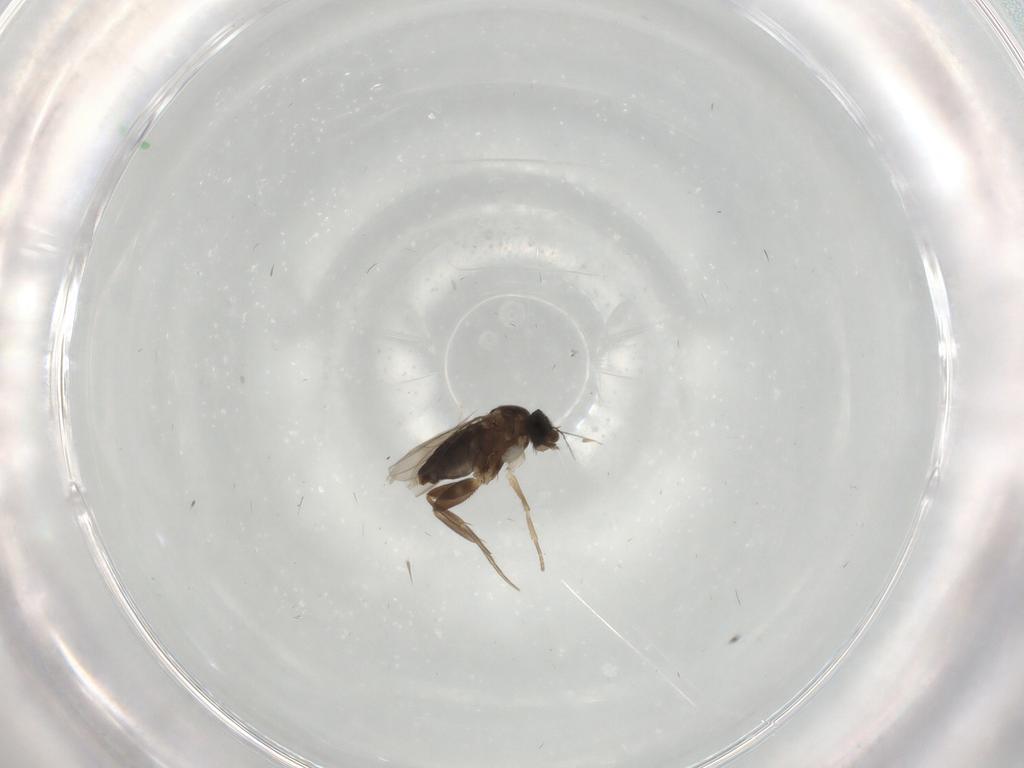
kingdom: Animalia
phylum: Arthropoda
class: Insecta
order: Diptera
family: Phoridae
